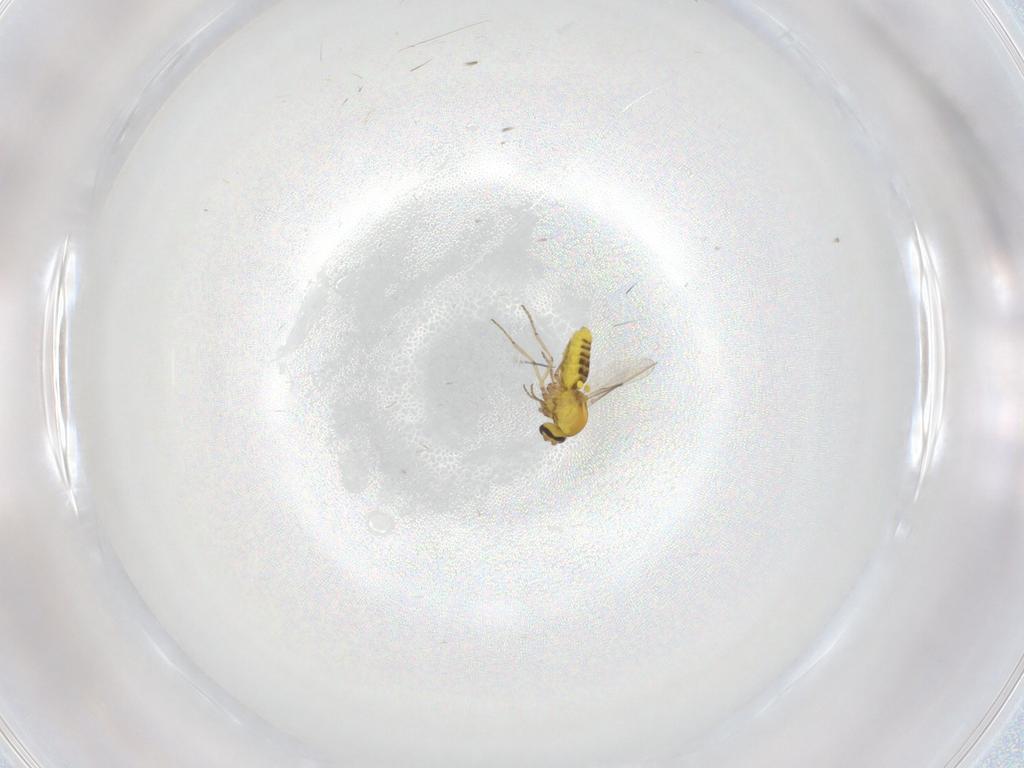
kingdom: Animalia
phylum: Arthropoda
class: Insecta
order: Diptera
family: Ceratopogonidae
